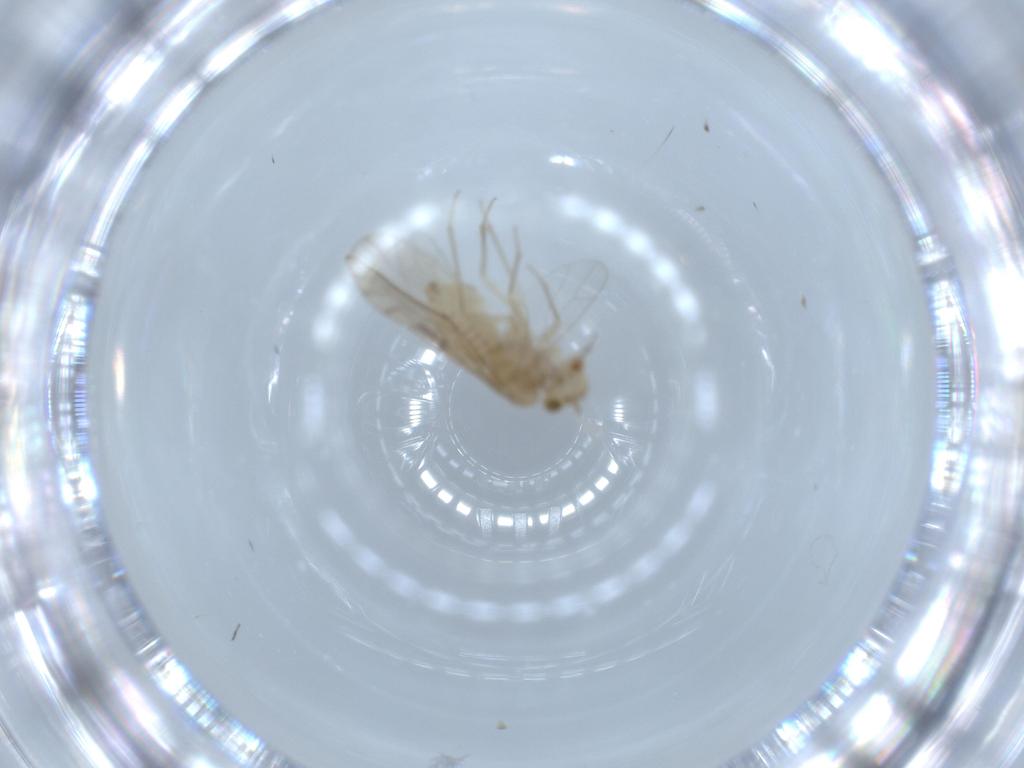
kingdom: Animalia
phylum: Arthropoda
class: Insecta
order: Psocodea
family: Lachesillidae
